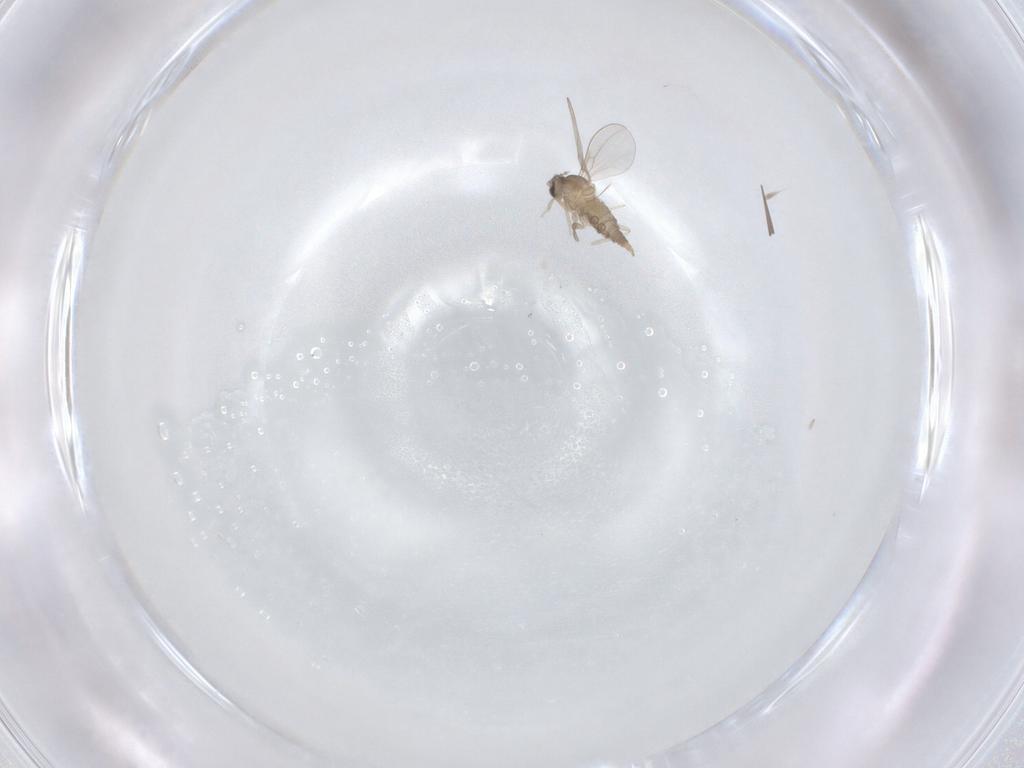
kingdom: Animalia
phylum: Arthropoda
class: Insecta
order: Diptera
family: Cecidomyiidae
